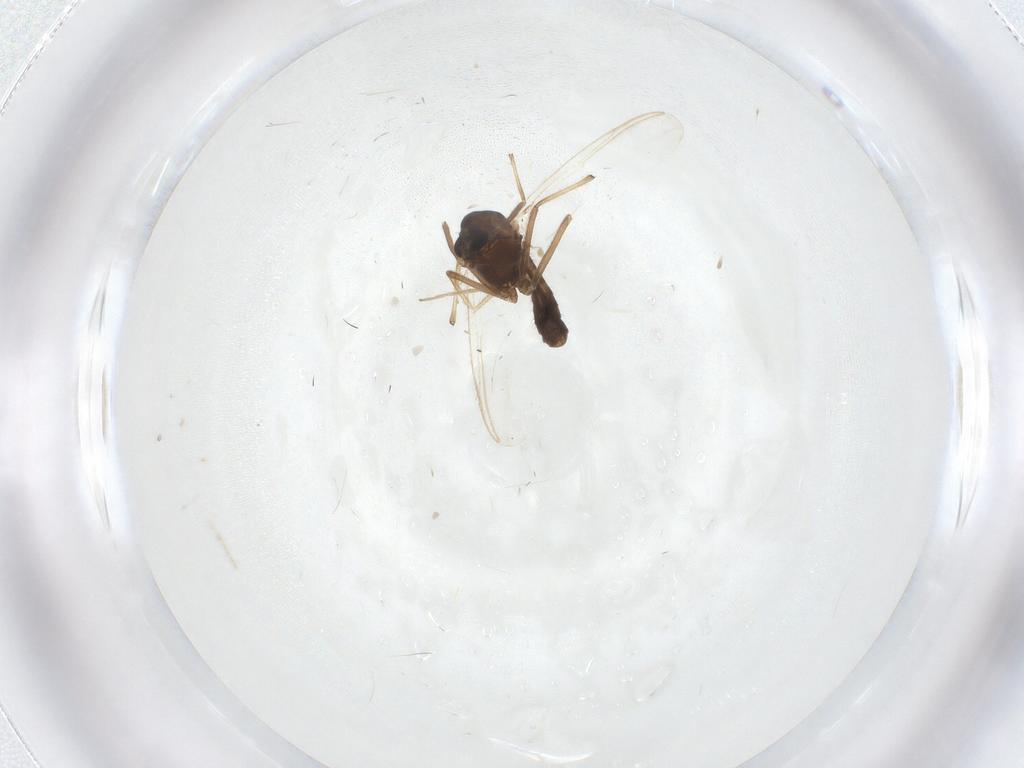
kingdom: Animalia
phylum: Arthropoda
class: Insecta
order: Diptera
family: Chironomidae
